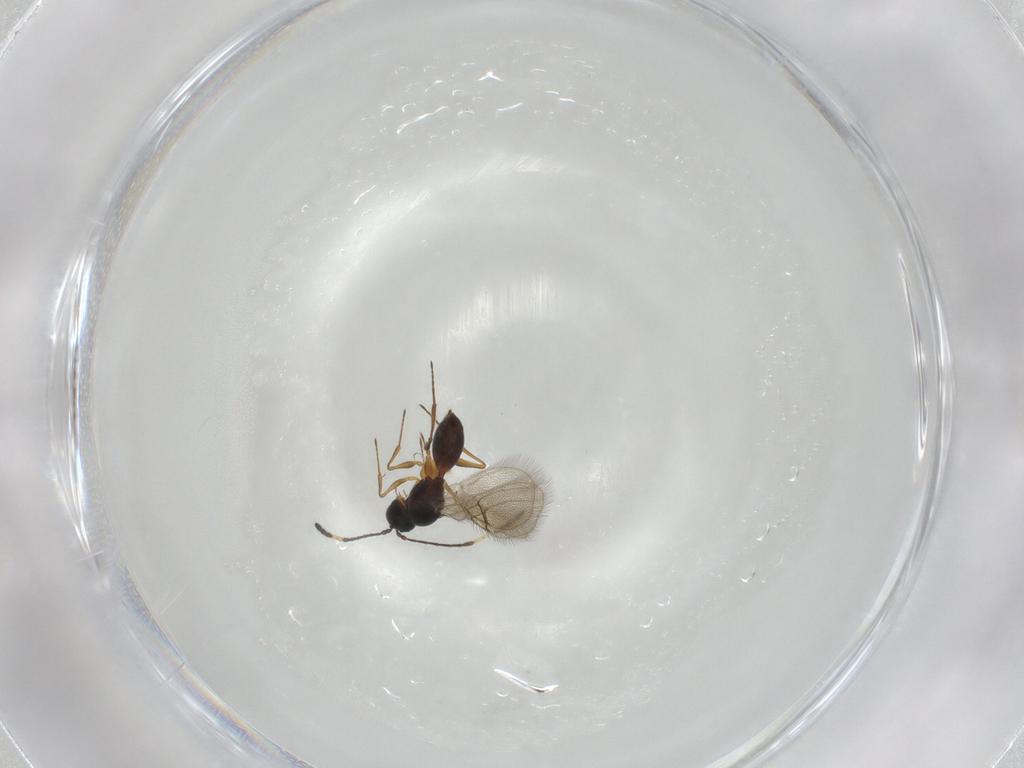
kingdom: Animalia
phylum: Arthropoda
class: Insecta
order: Hymenoptera
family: Figitidae
